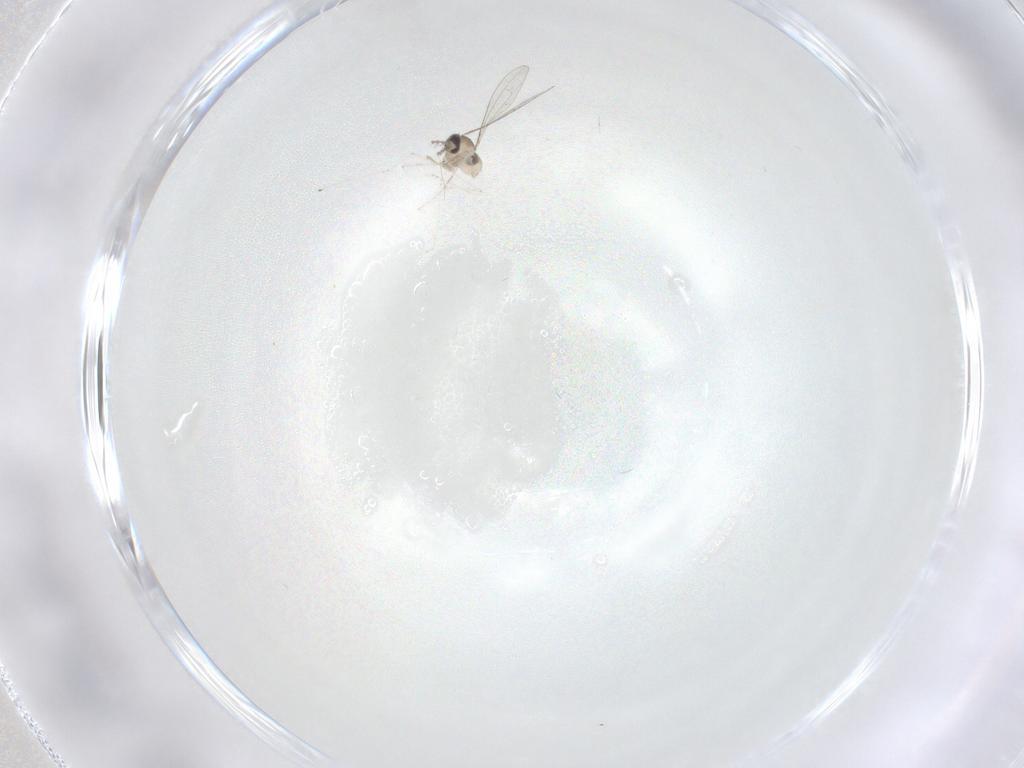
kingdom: Animalia
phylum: Arthropoda
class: Insecta
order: Diptera
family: Cecidomyiidae
